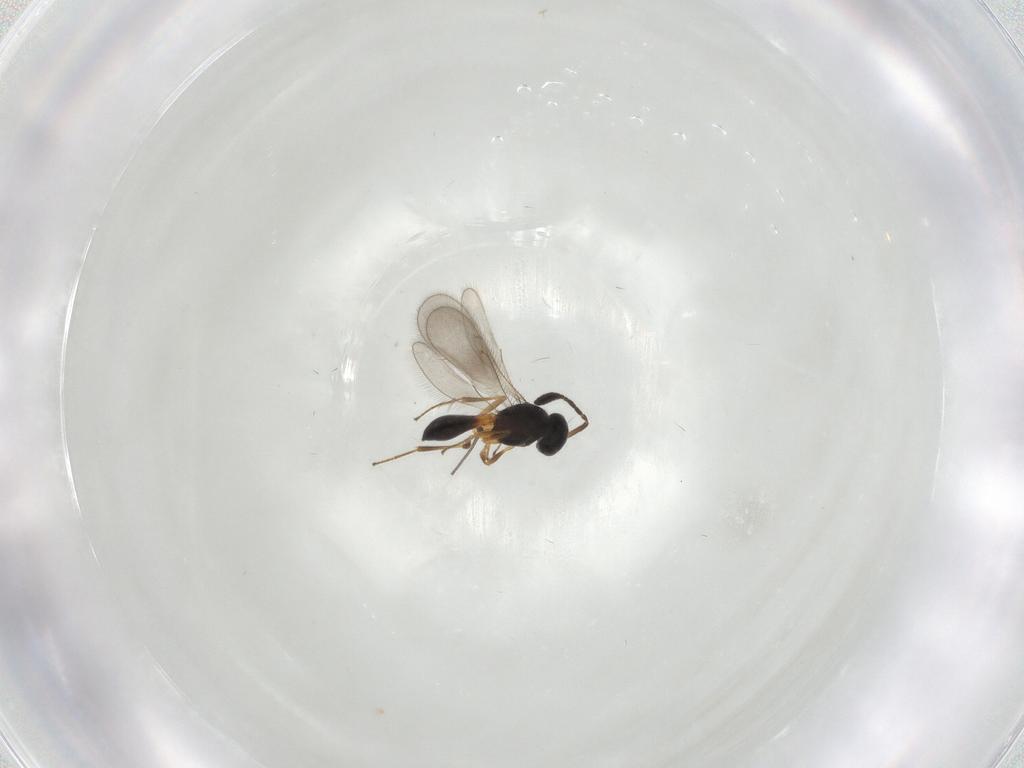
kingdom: Animalia
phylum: Arthropoda
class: Insecta
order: Hymenoptera
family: Scelionidae
